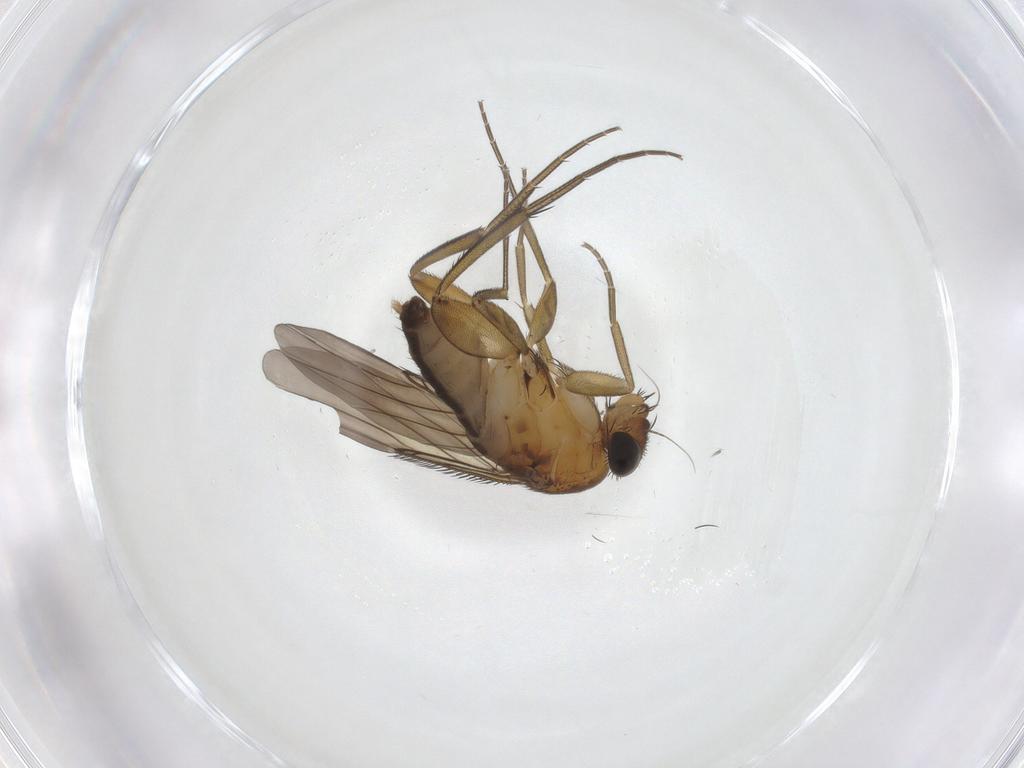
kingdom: Animalia
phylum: Arthropoda
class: Insecta
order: Diptera
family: Phoridae
